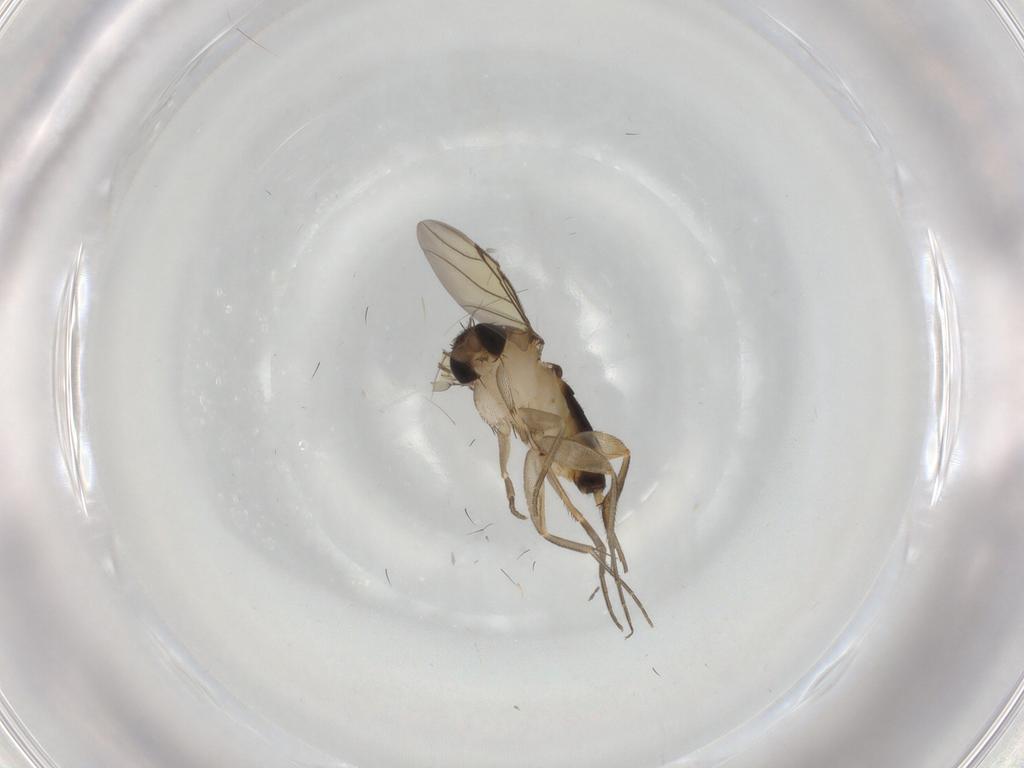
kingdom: Animalia
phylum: Arthropoda
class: Insecta
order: Diptera
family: Phoridae
